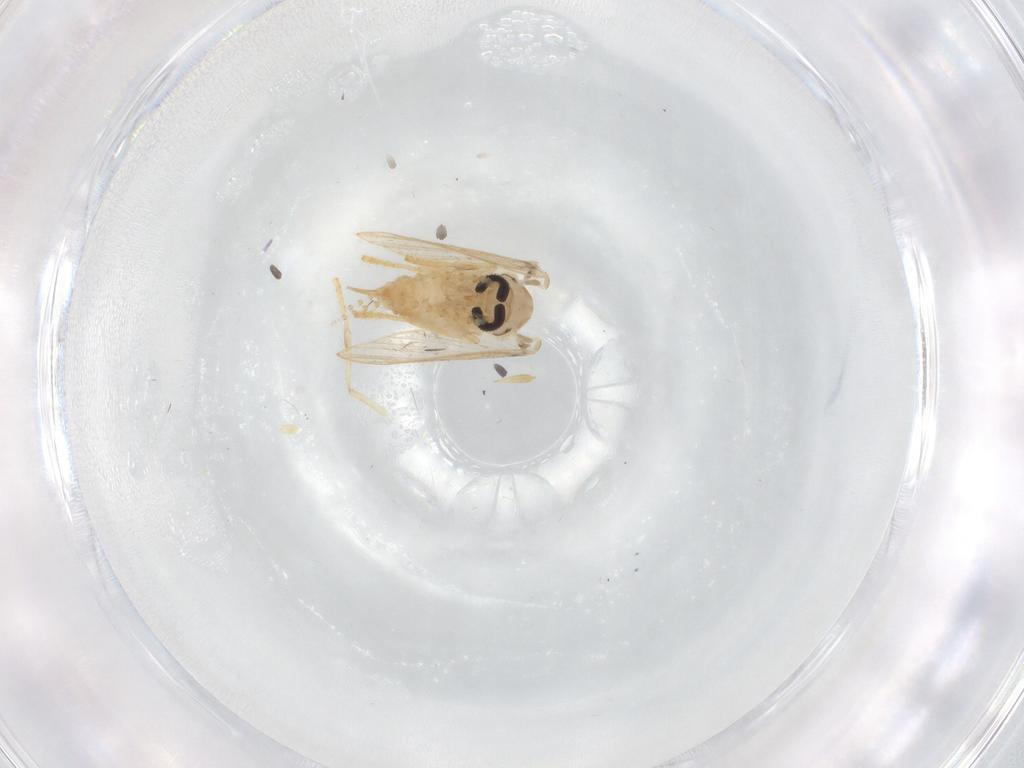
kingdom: Animalia
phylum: Arthropoda
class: Insecta
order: Diptera
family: Psychodidae
